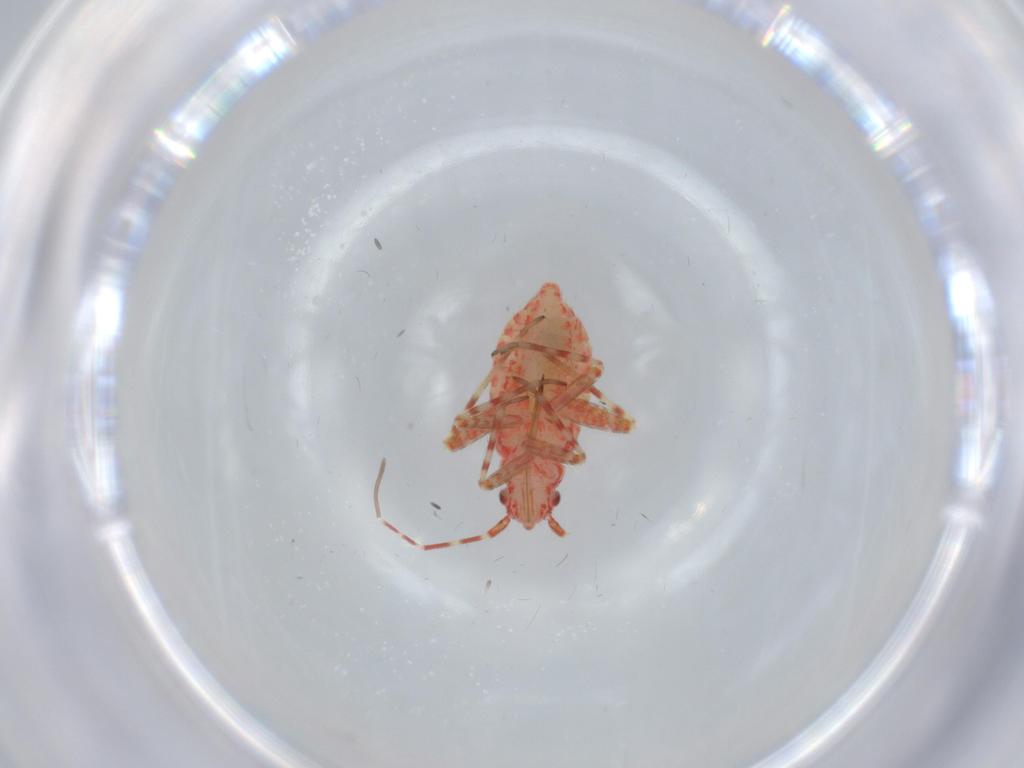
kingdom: Animalia
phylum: Arthropoda
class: Insecta
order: Hemiptera
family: Miridae
